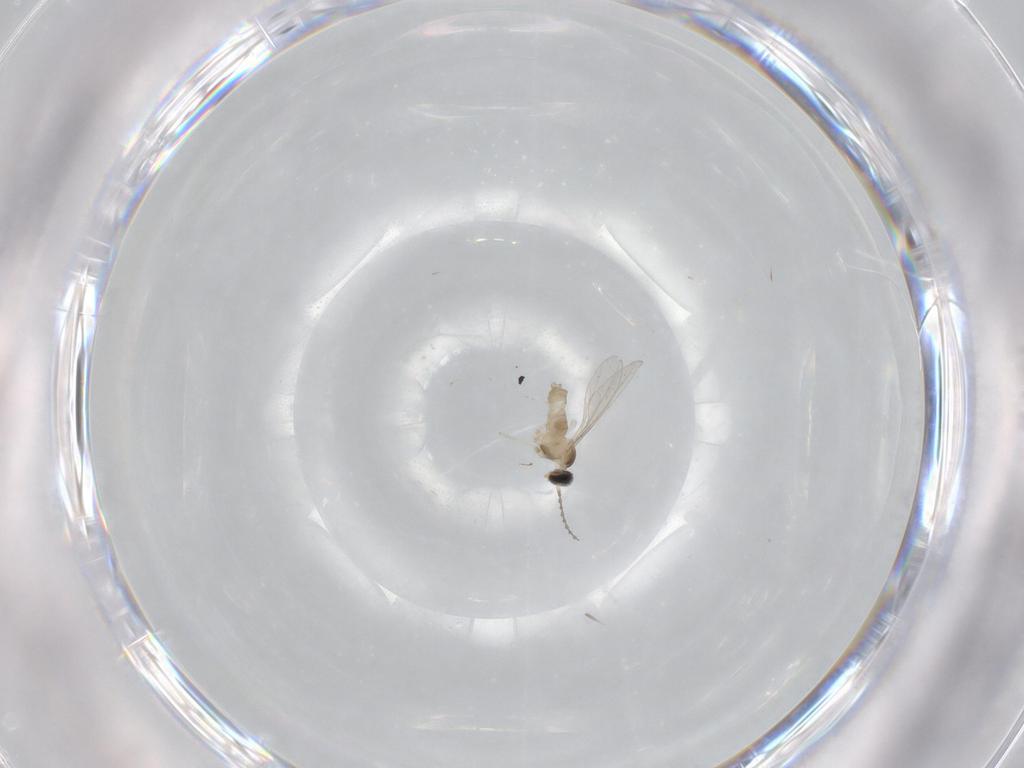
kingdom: Animalia
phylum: Arthropoda
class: Insecta
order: Diptera
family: Cecidomyiidae
